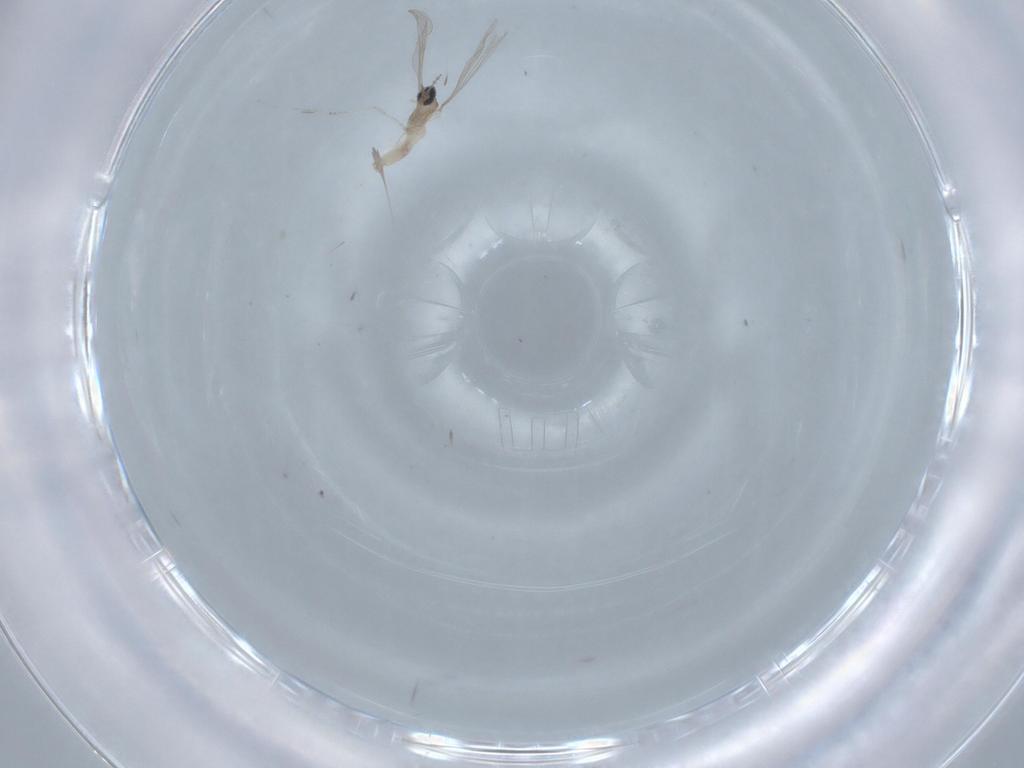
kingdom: Animalia
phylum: Arthropoda
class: Insecta
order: Diptera
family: Cecidomyiidae
